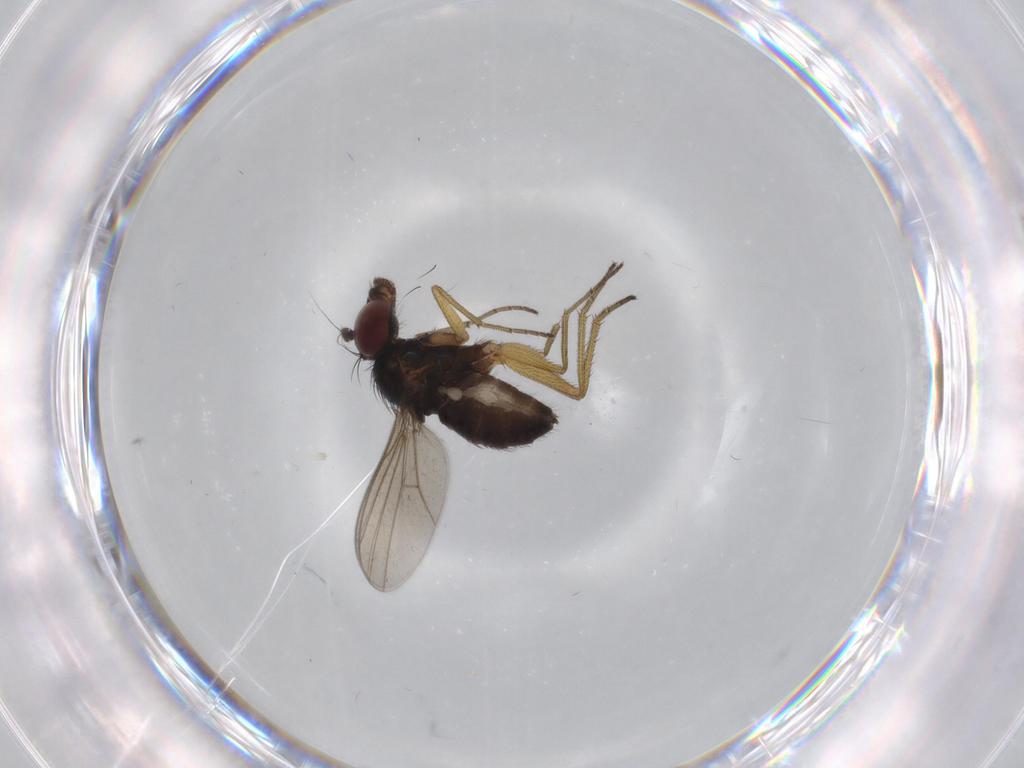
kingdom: Animalia
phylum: Arthropoda
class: Insecta
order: Diptera
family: Dolichopodidae
